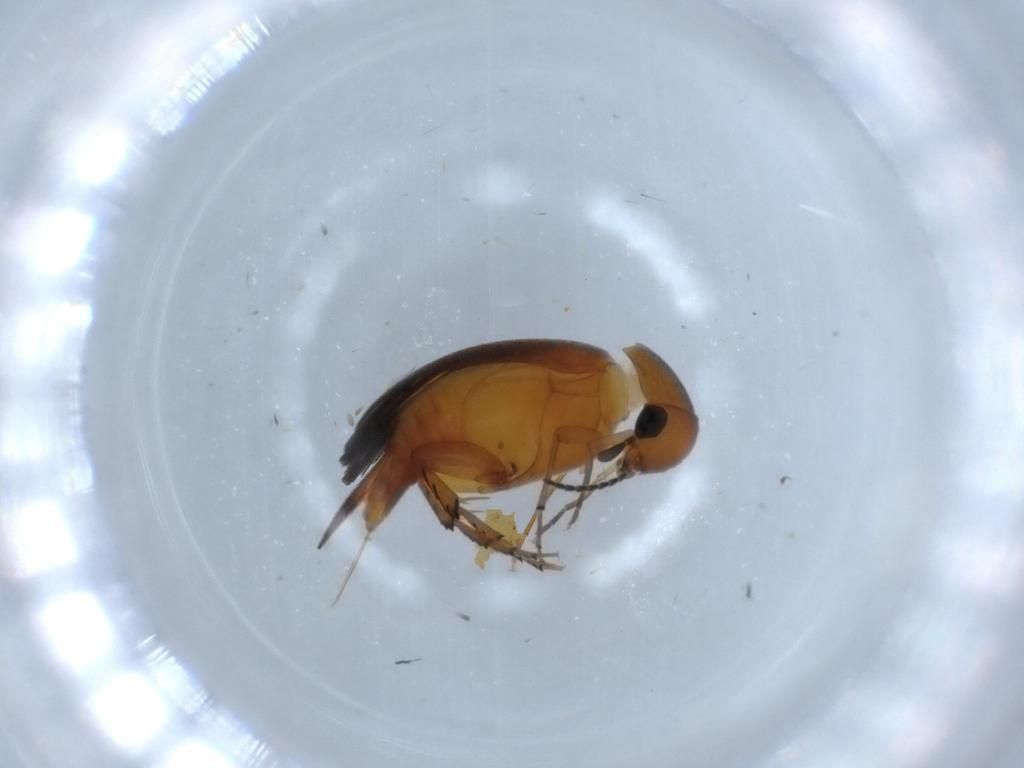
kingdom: Animalia
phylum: Arthropoda
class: Insecta
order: Coleoptera
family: Mordellidae
